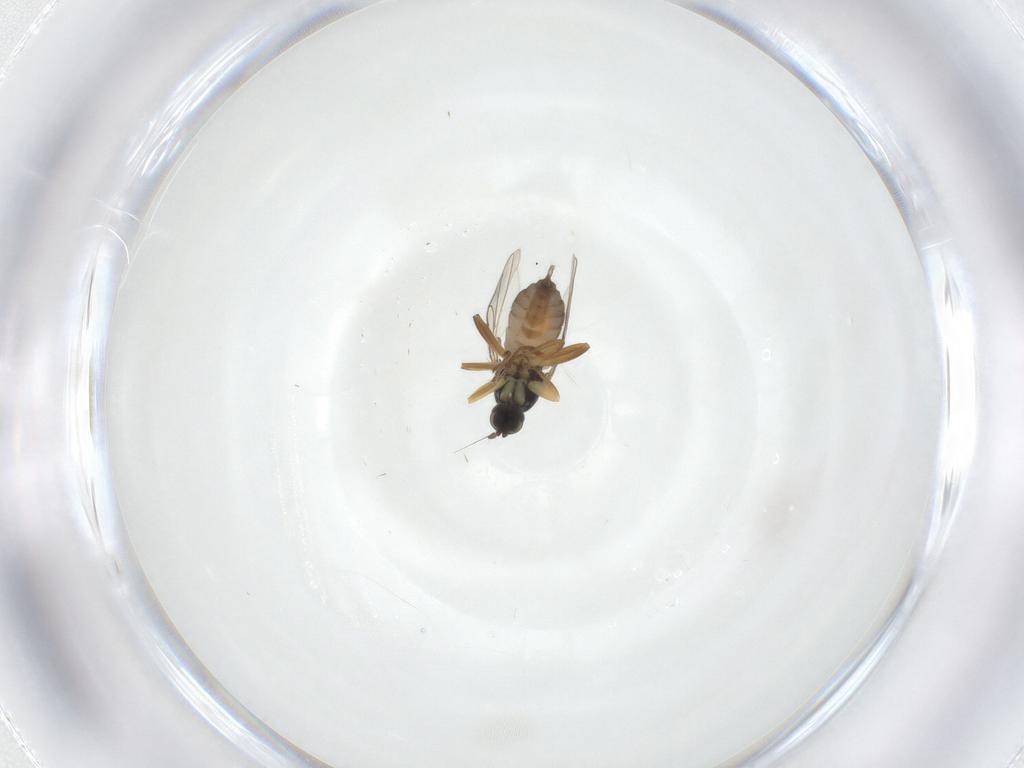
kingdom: Animalia
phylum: Arthropoda
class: Insecta
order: Diptera
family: Hybotidae
